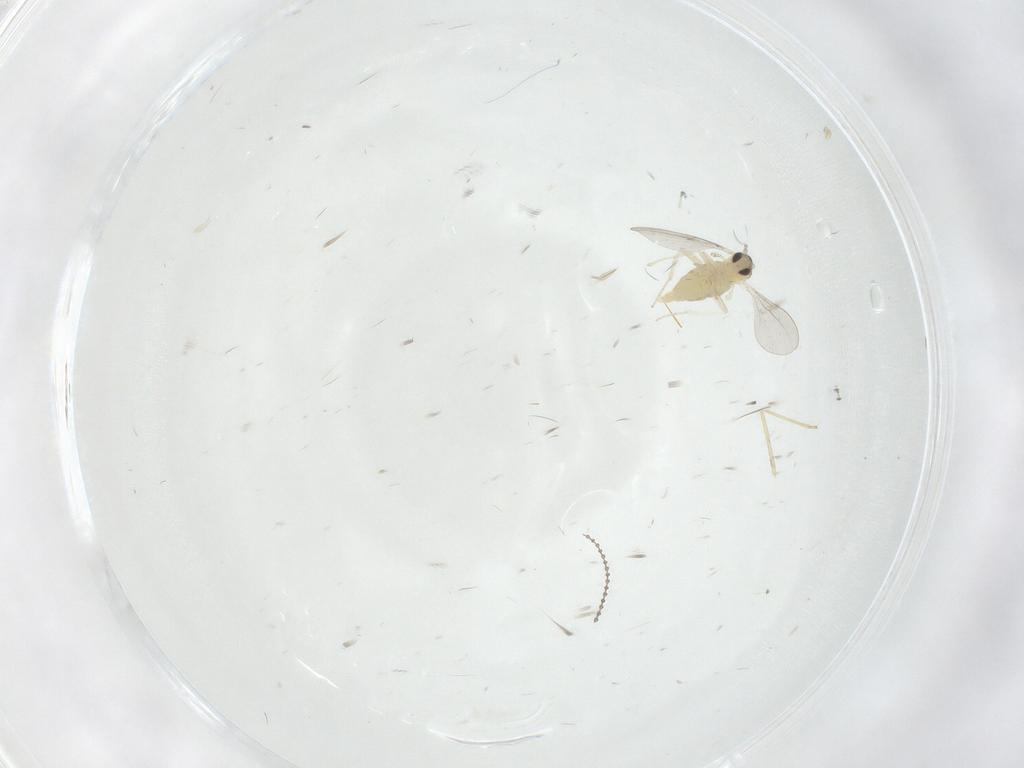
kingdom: Animalia
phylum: Arthropoda
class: Insecta
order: Diptera
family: Cecidomyiidae
